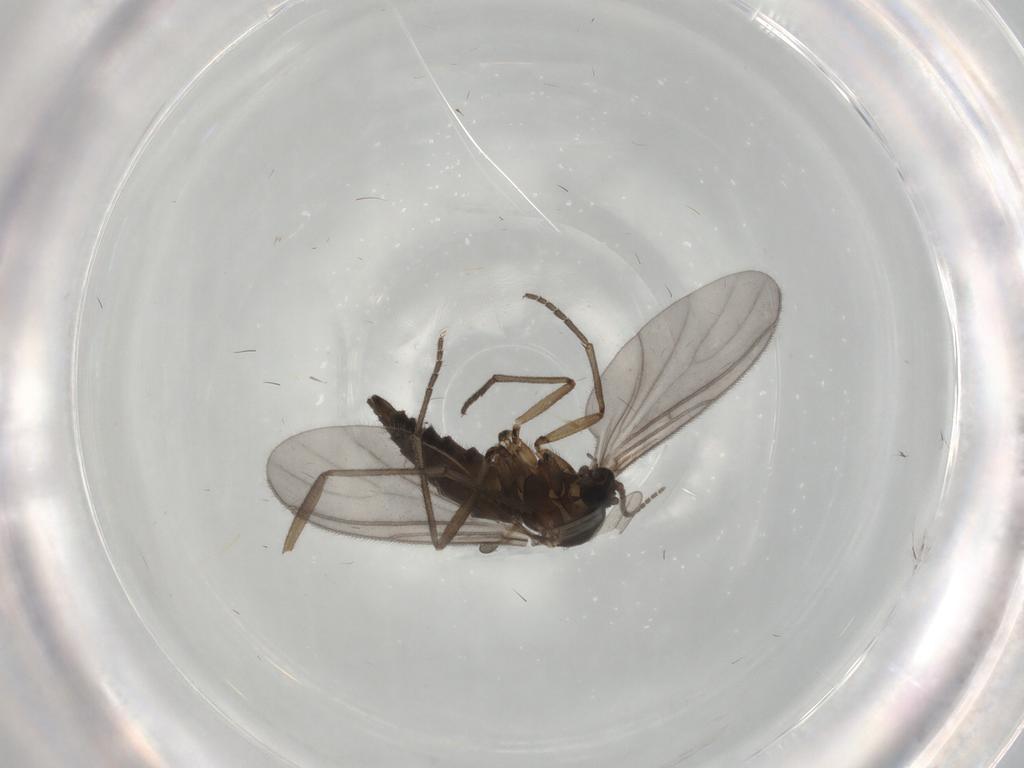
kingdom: Animalia
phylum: Arthropoda
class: Insecta
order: Diptera
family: Sciaridae
